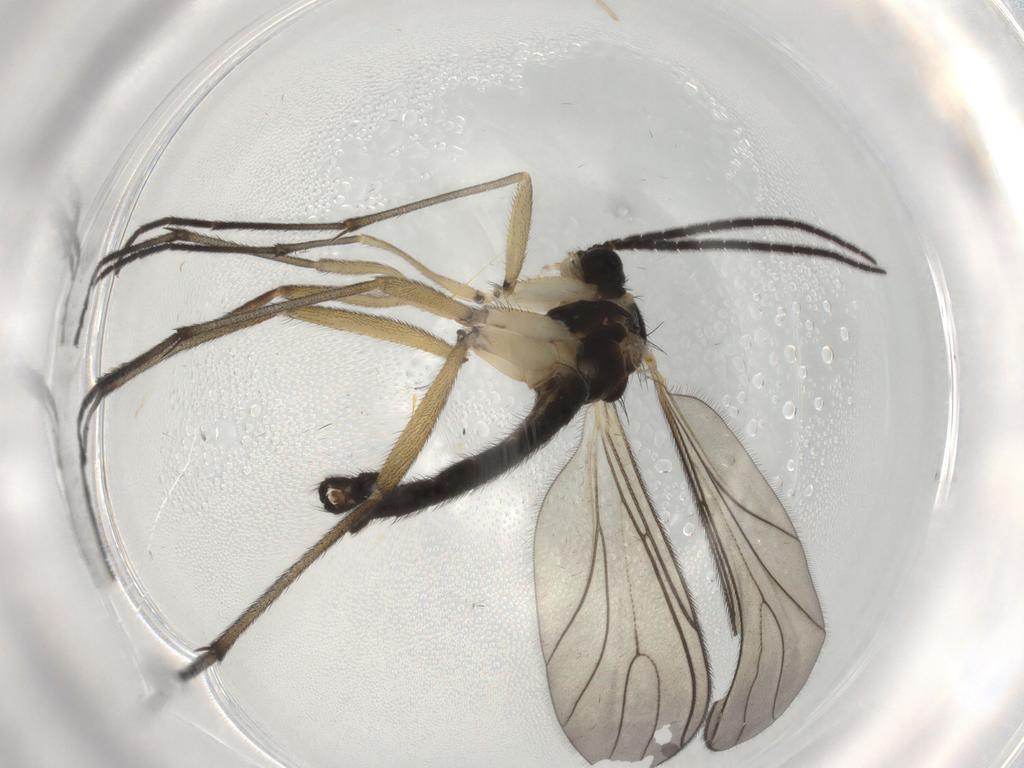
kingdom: Animalia
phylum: Arthropoda
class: Insecta
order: Diptera
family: Sciaridae
